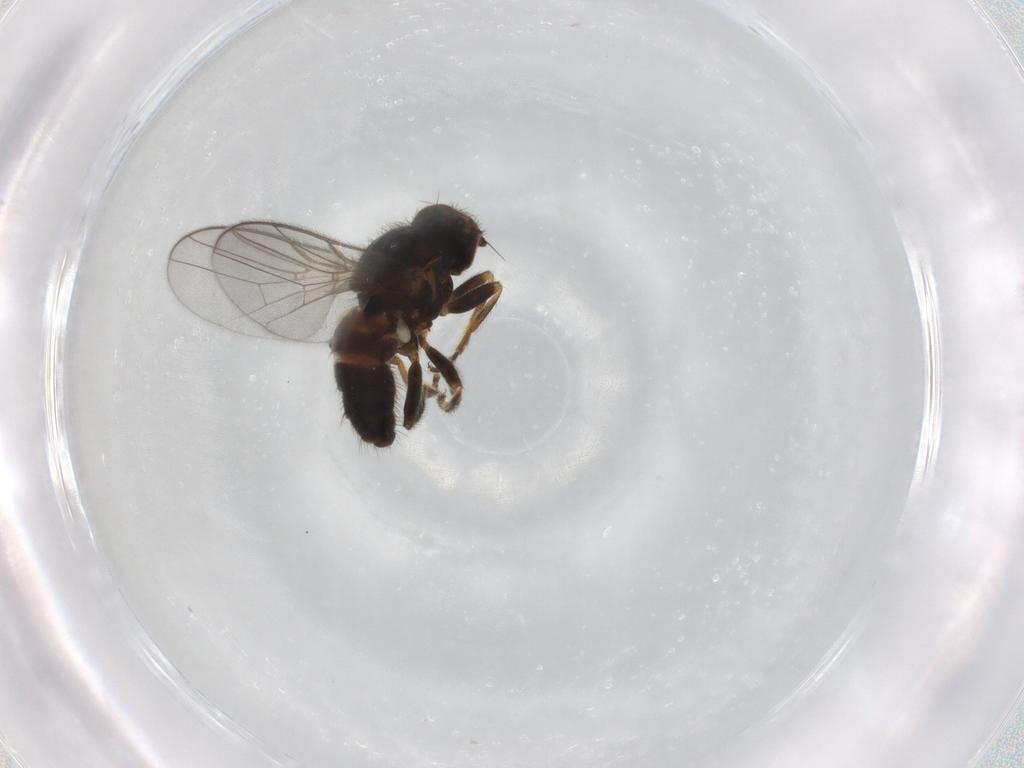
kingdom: Animalia
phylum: Arthropoda
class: Insecta
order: Diptera
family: Chloropidae
